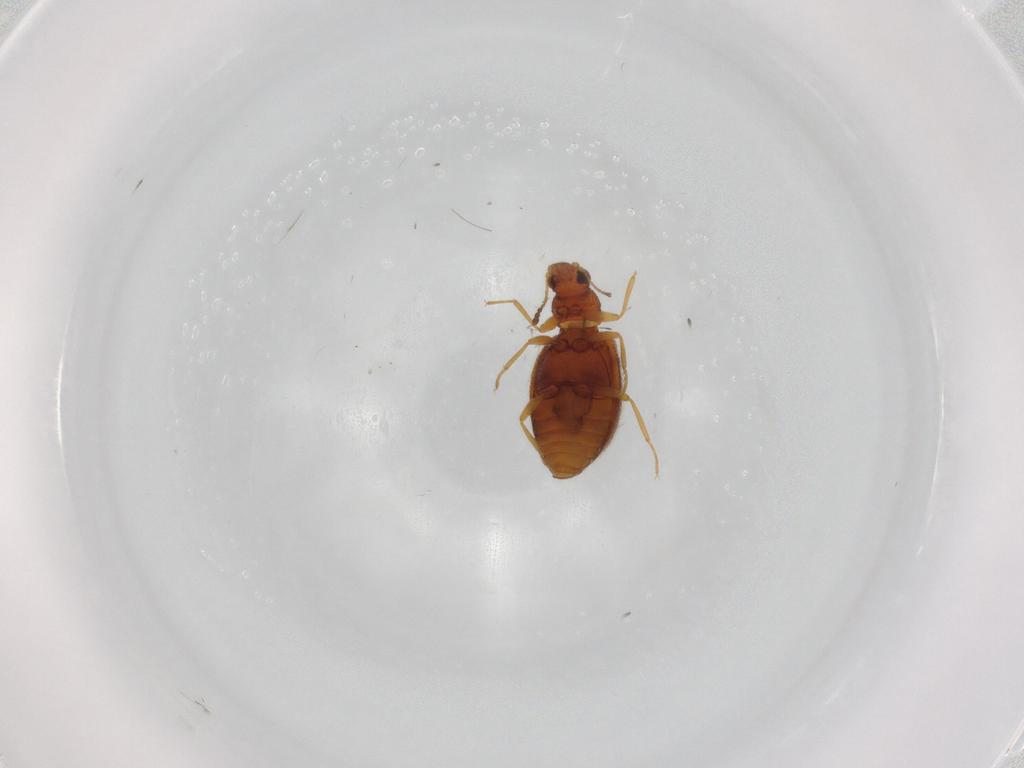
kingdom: Animalia
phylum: Arthropoda
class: Insecta
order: Coleoptera
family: Latridiidae
